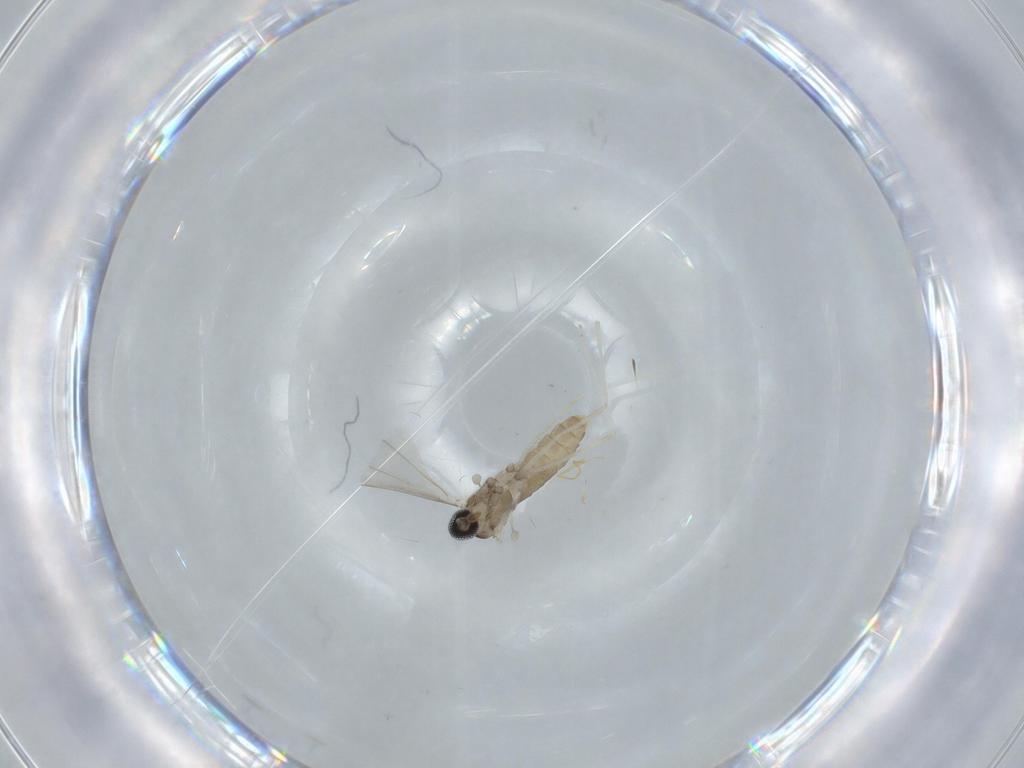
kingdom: Animalia
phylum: Arthropoda
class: Insecta
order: Diptera
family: Cecidomyiidae
